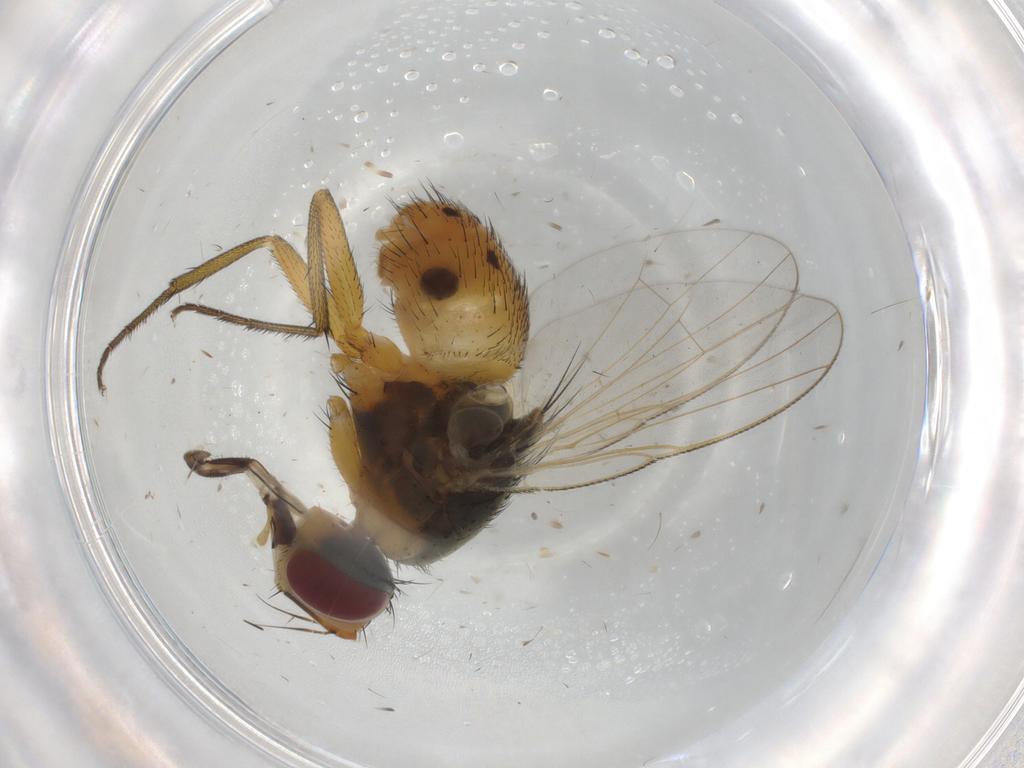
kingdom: Animalia
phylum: Arthropoda
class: Insecta
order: Diptera
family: Muscidae
